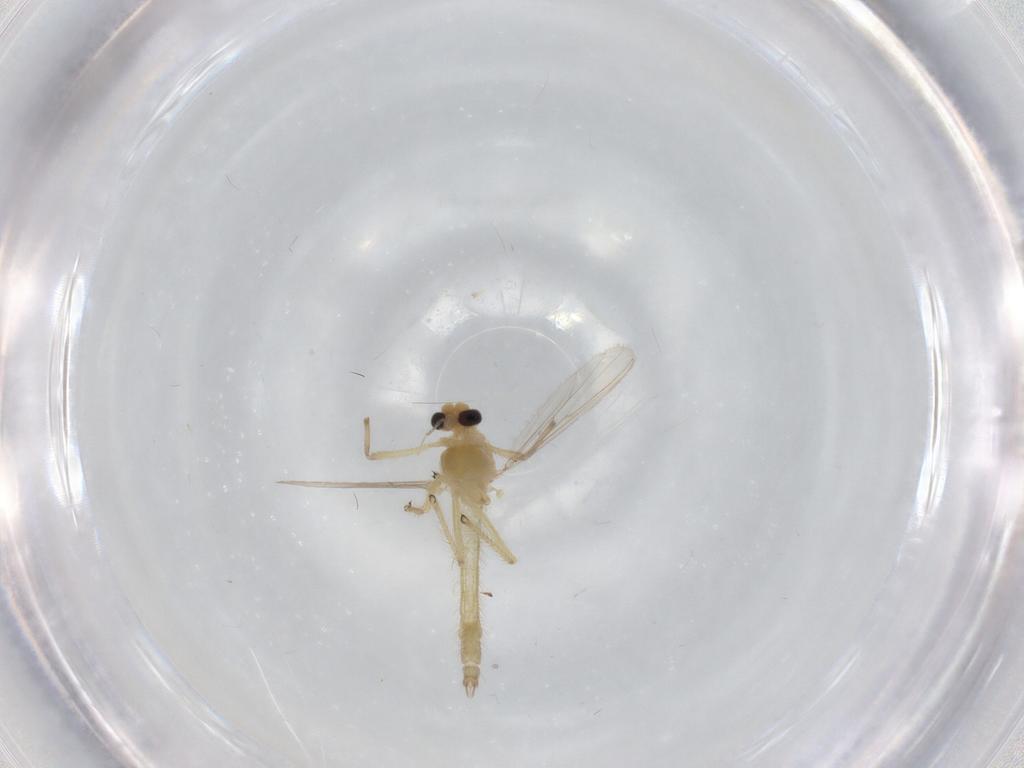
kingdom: Animalia
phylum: Arthropoda
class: Insecta
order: Diptera
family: Chironomidae
